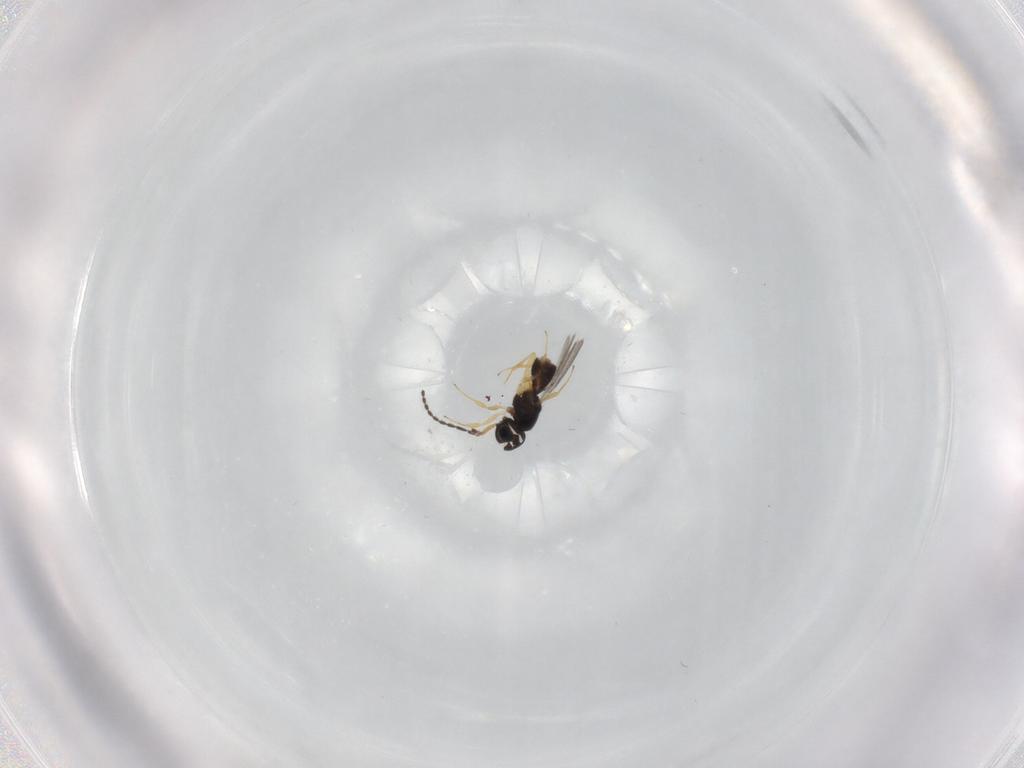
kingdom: Animalia
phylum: Arthropoda
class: Insecta
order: Hymenoptera
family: Scelionidae
